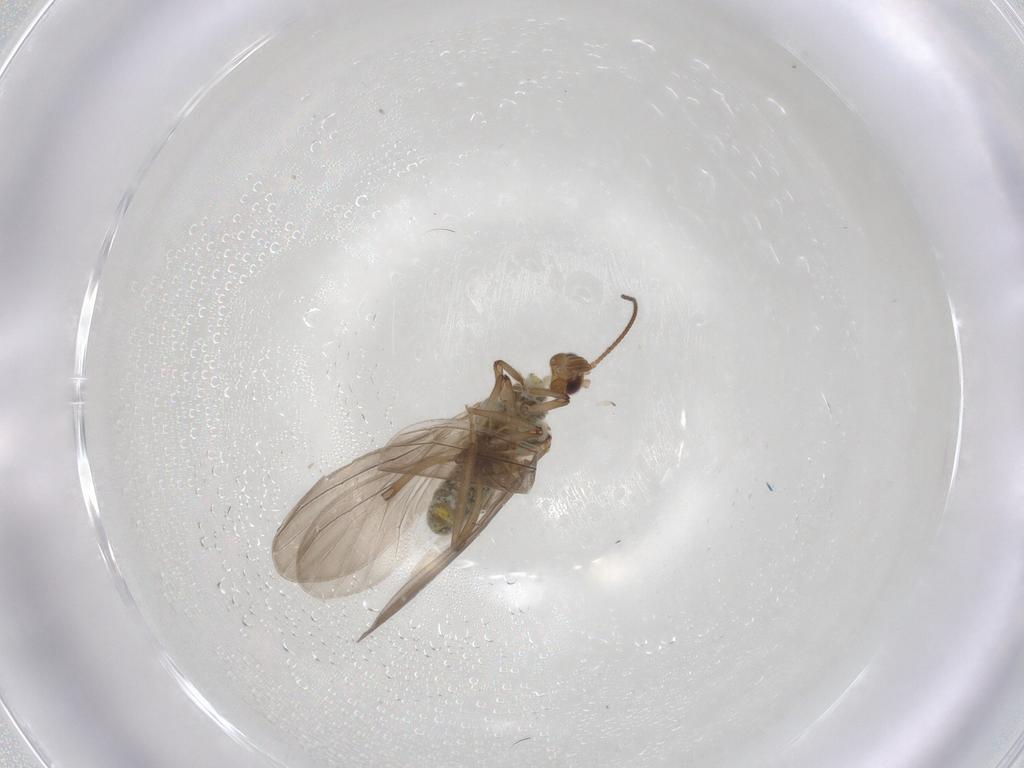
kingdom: Animalia
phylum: Arthropoda
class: Insecta
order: Neuroptera
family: Coniopterygidae
